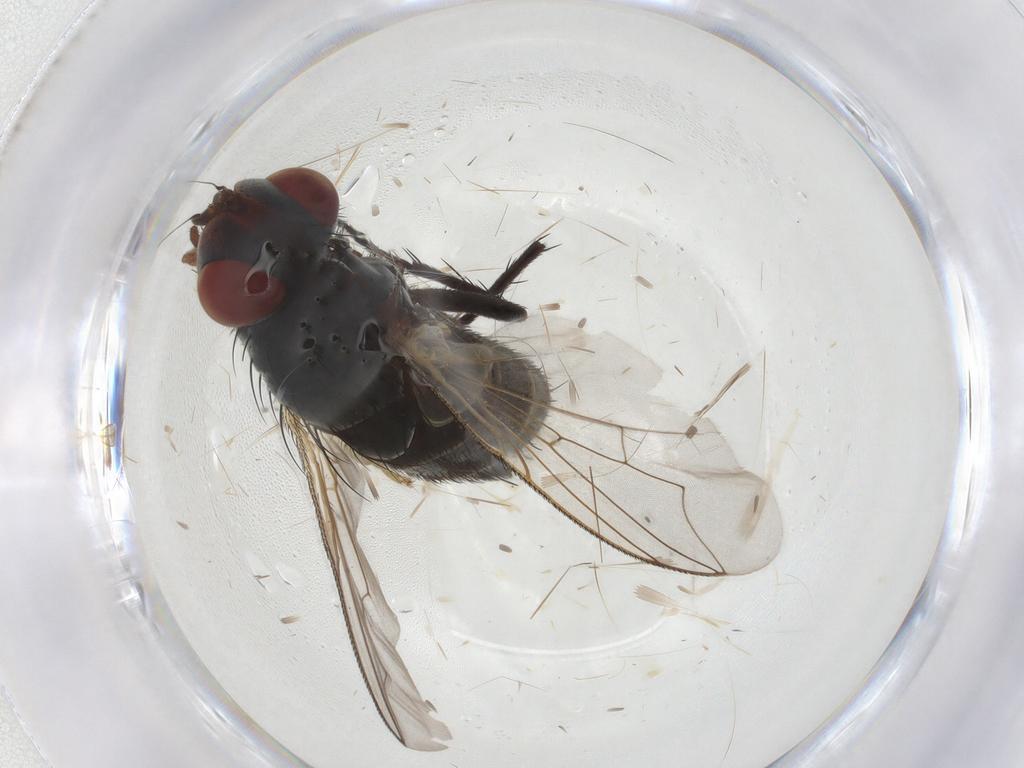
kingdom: Animalia
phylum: Arthropoda
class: Insecta
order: Diptera
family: Sarcophagidae
